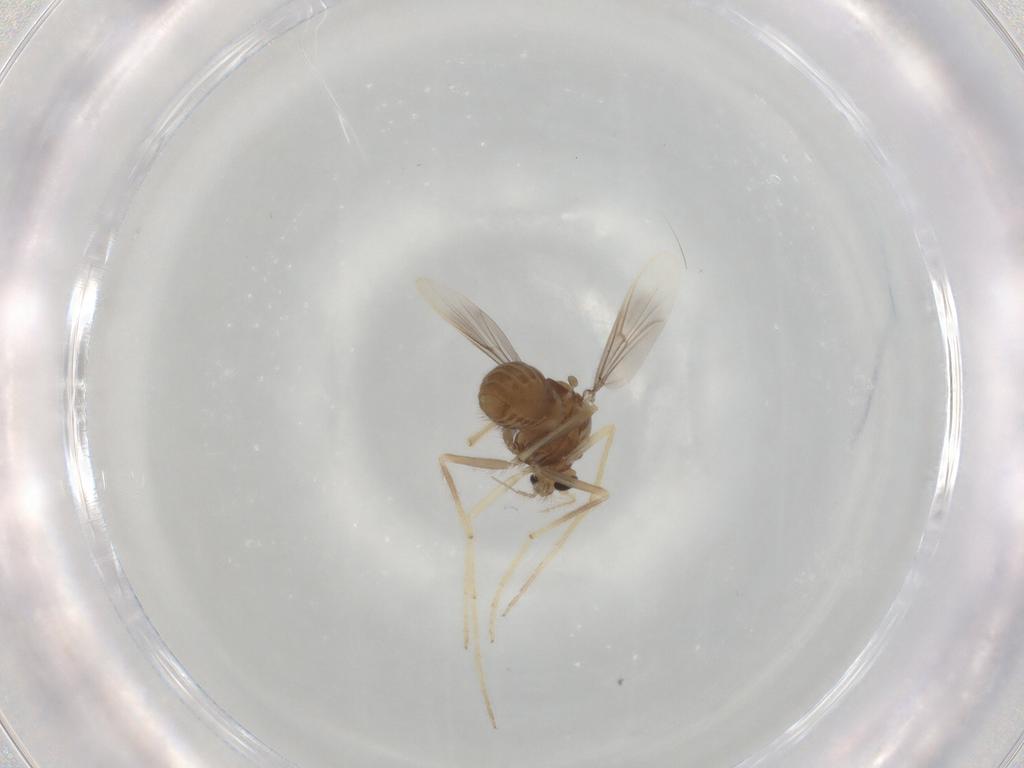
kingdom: Animalia
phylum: Arthropoda
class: Insecta
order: Diptera
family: Chironomidae
